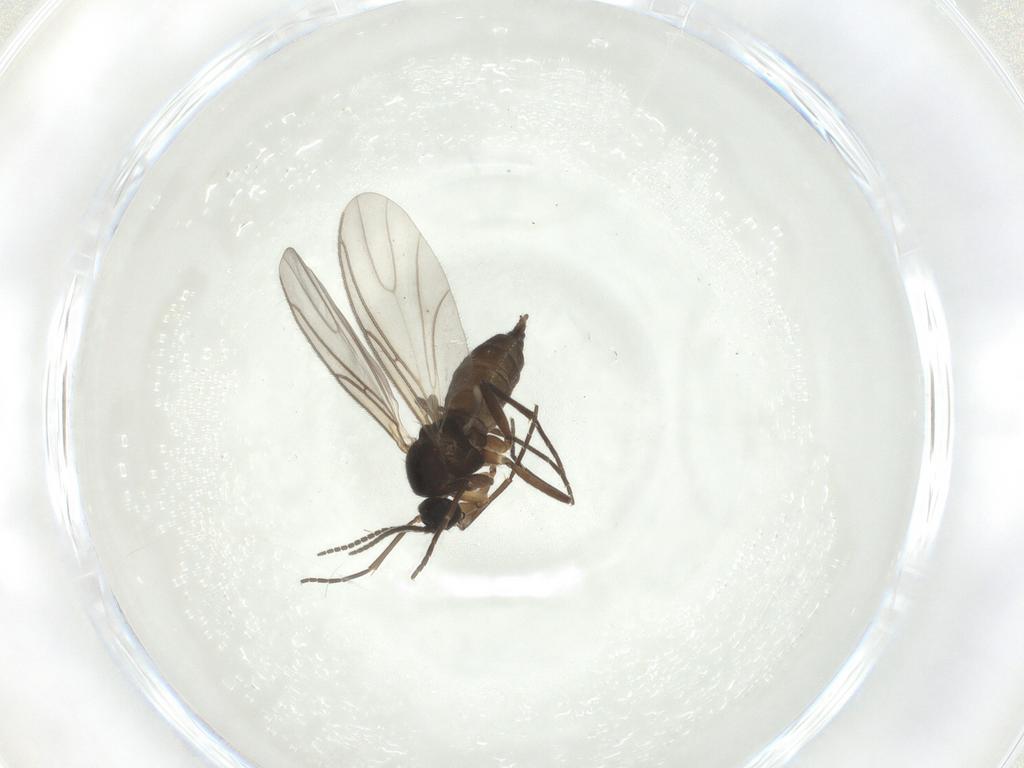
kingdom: Animalia
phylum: Arthropoda
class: Insecta
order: Diptera
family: Sciaridae
